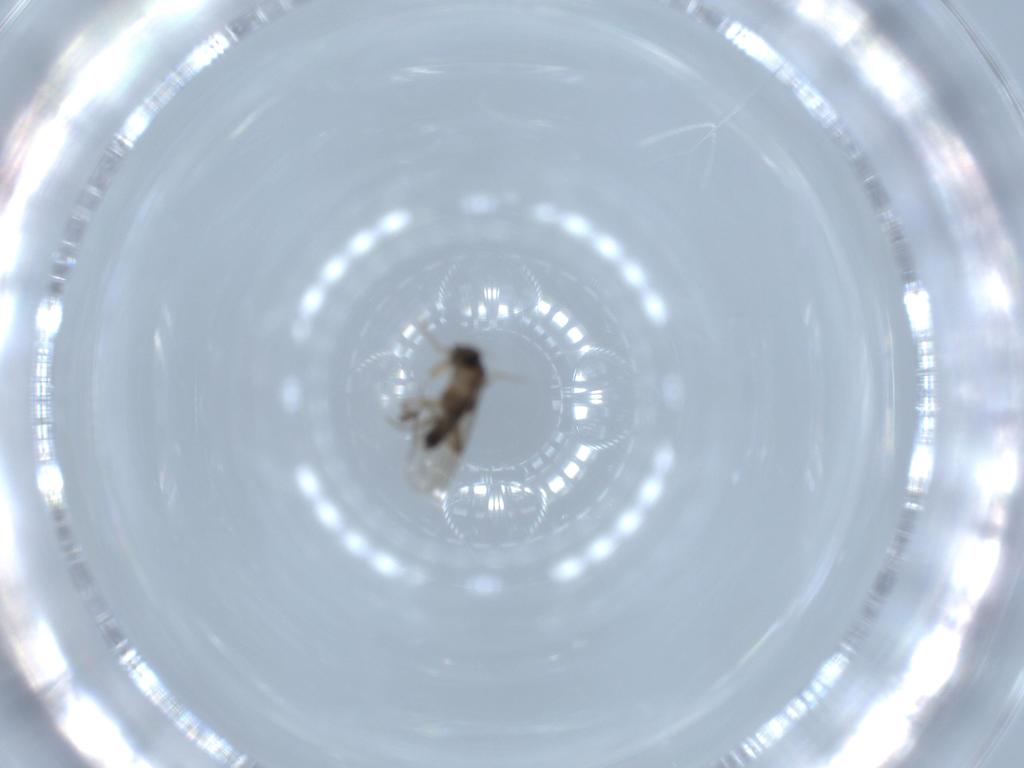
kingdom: Animalia
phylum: Arthropoda
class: Insecta
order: Diptera
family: Phoridae
